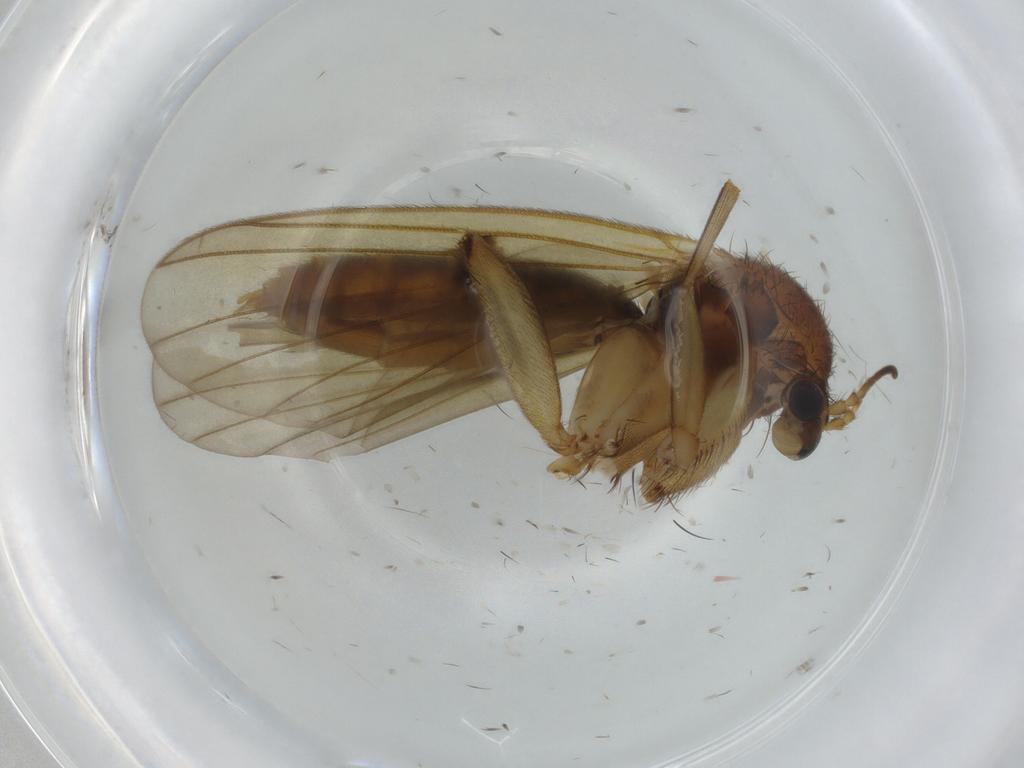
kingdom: Animalia
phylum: Arthropoda
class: Insecta
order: Diptera
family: Mycetophilidae
